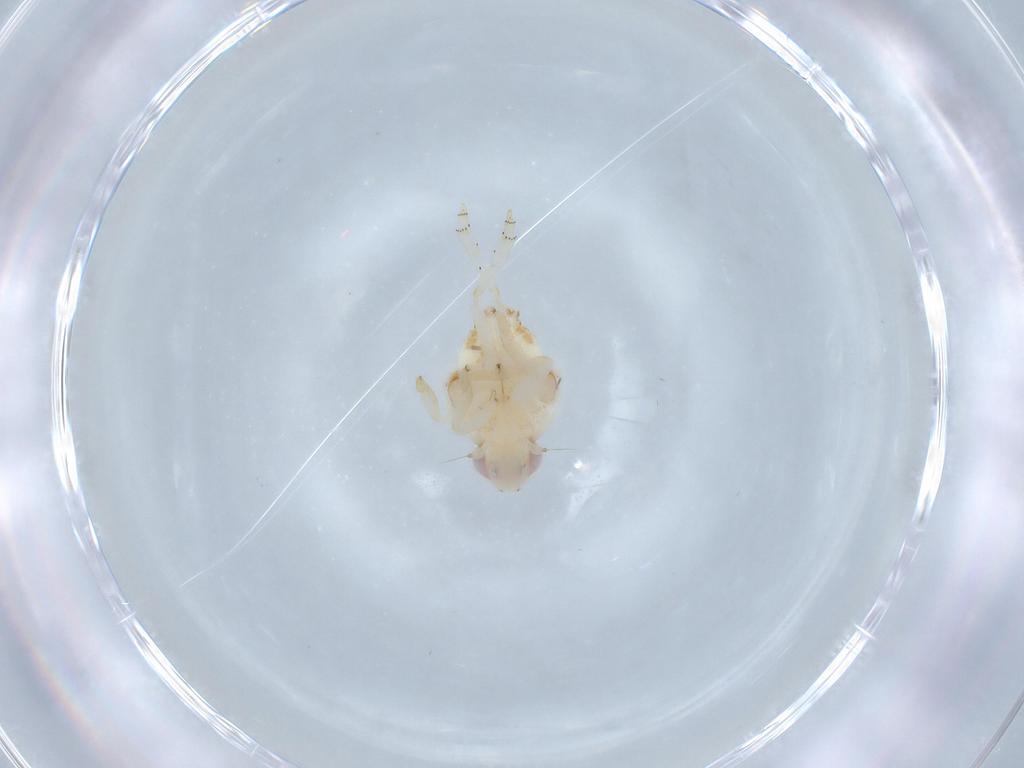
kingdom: Animalia
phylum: Arthropoda
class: Insecta
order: Hemiptera
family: Nogodinidae
